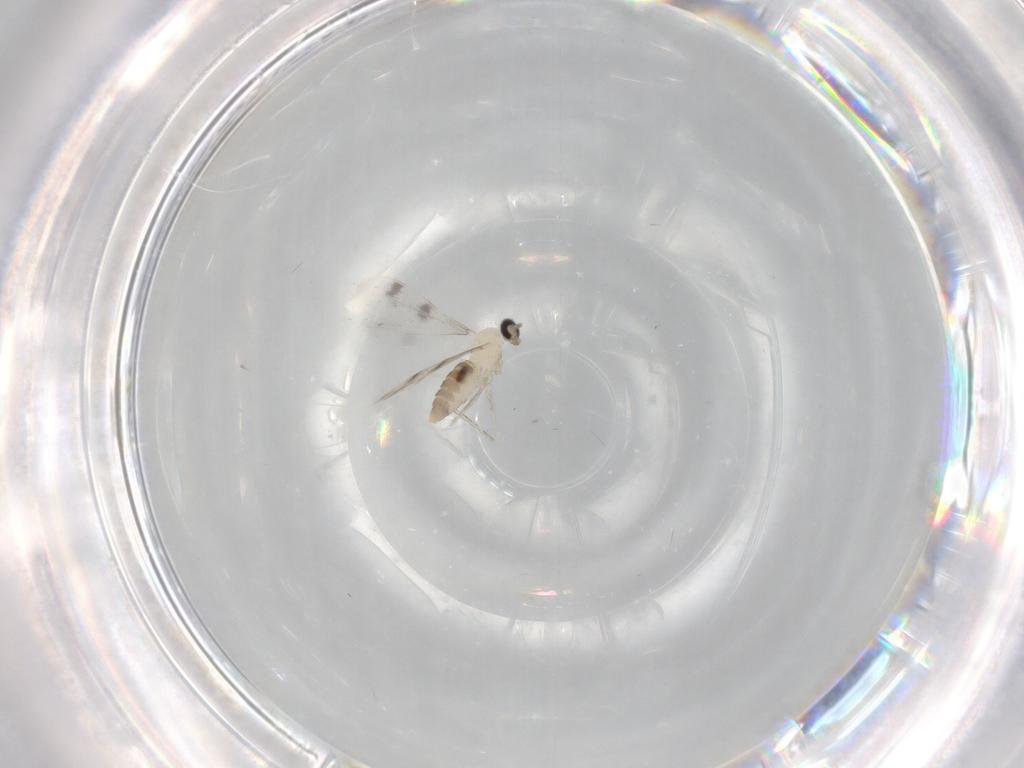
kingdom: Animalia
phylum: Arthropoda
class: Insecta
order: Diptera
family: Cecidomyiidae
